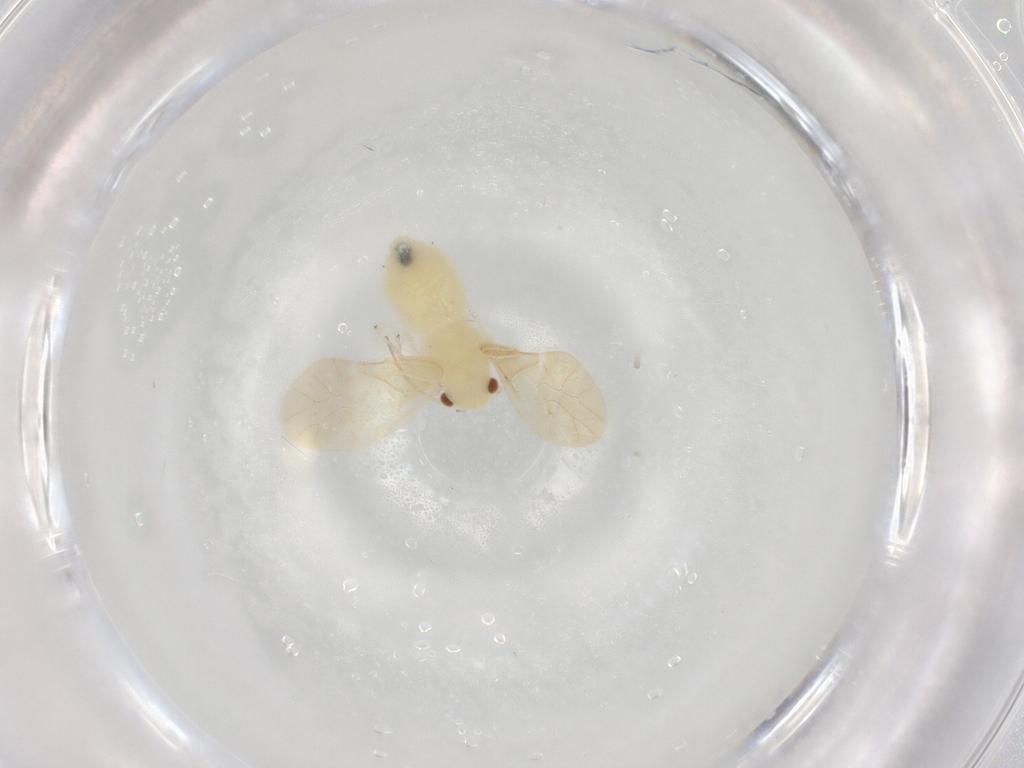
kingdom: Animalia
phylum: Arthropoda
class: Insecta
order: Psocodea
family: Caeciliusidae
